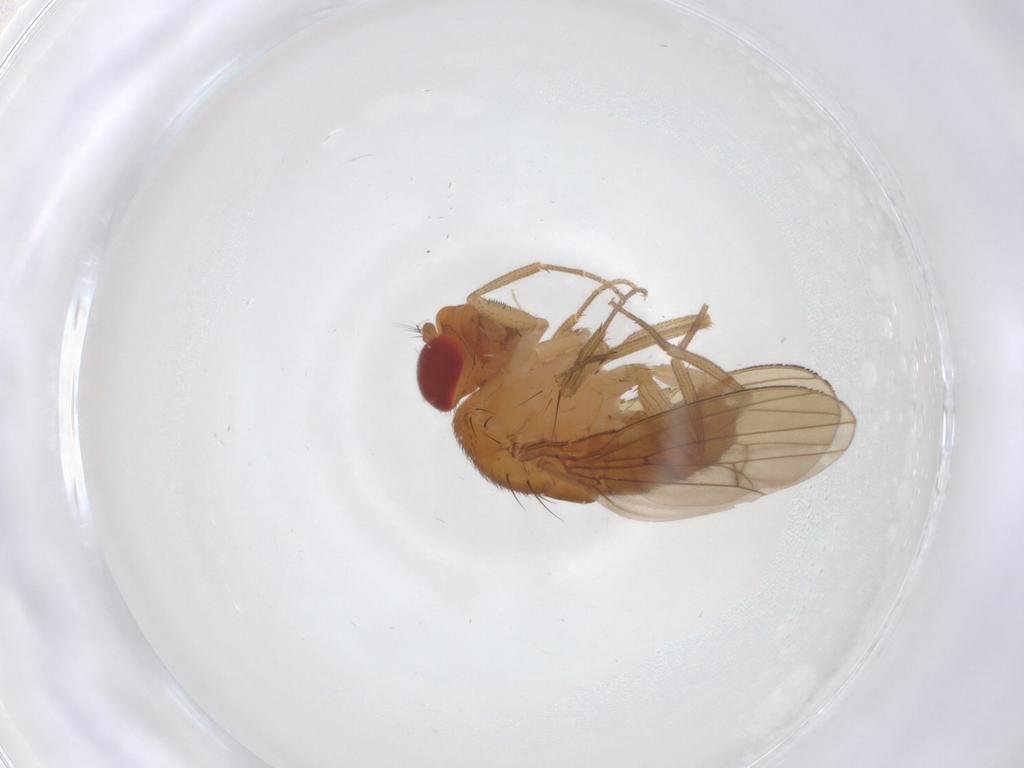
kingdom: Animalia
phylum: Arthropoda
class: Insecta
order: Diptera
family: Drosophilidae
